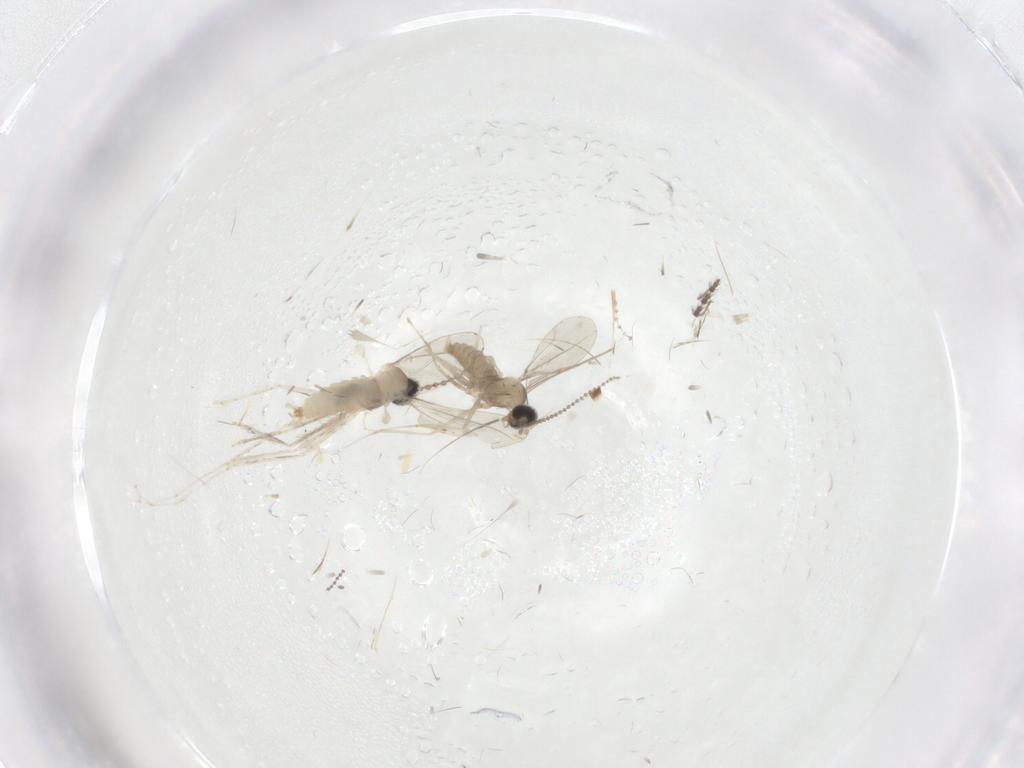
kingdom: Animalia
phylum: Arthropoda
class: Insecta
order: Diptera
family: Cecidomyiidae
